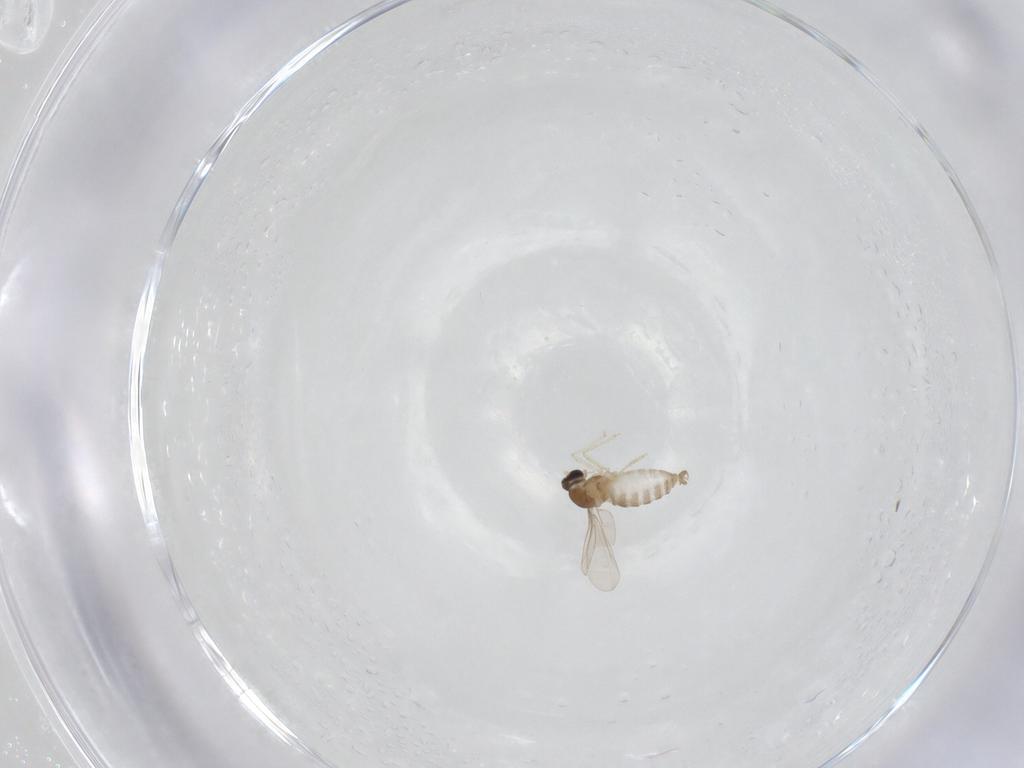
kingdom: Animalia
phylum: Arthropoda
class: Insecta
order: Diptera
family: Cecidomyiidae
